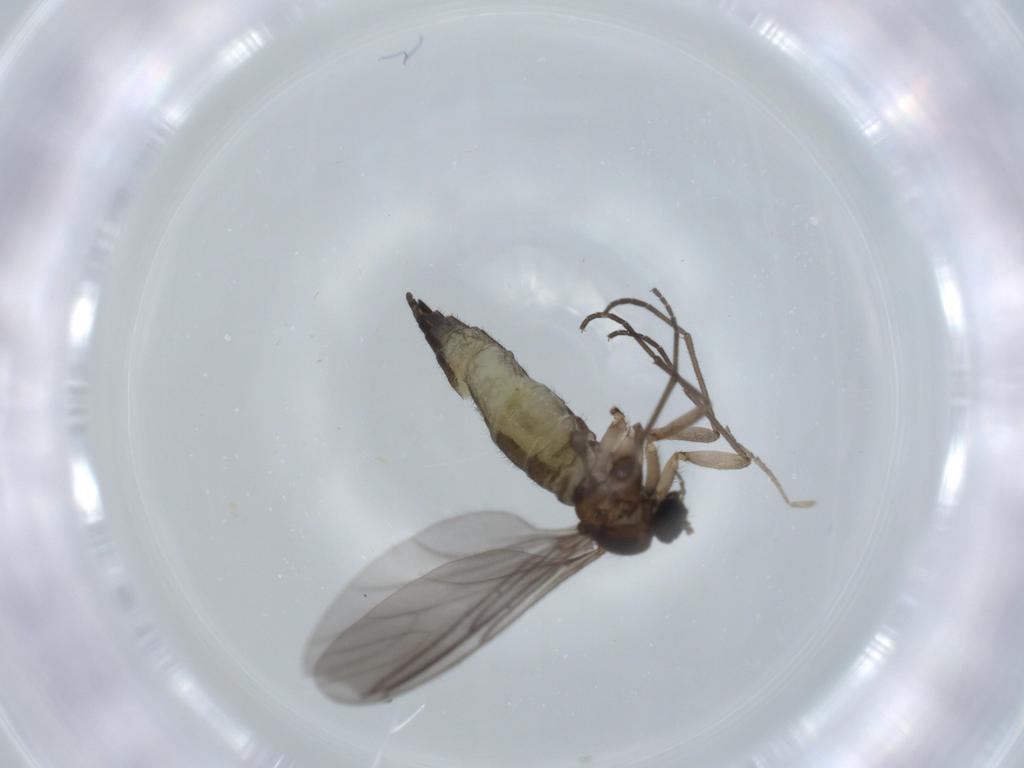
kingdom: Animalia
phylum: Arthropoda
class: Insecta
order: Diptera
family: Sciaridae
